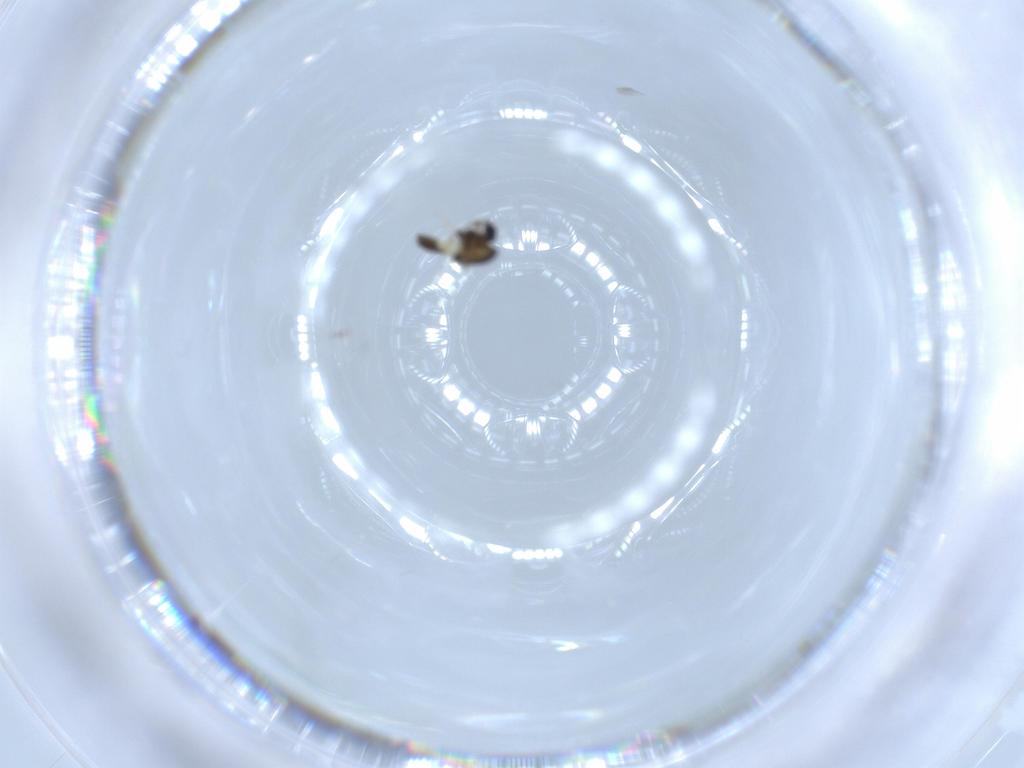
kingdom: Animalia
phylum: Arthropoda
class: Insecta
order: Diptera
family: Chironomidae
